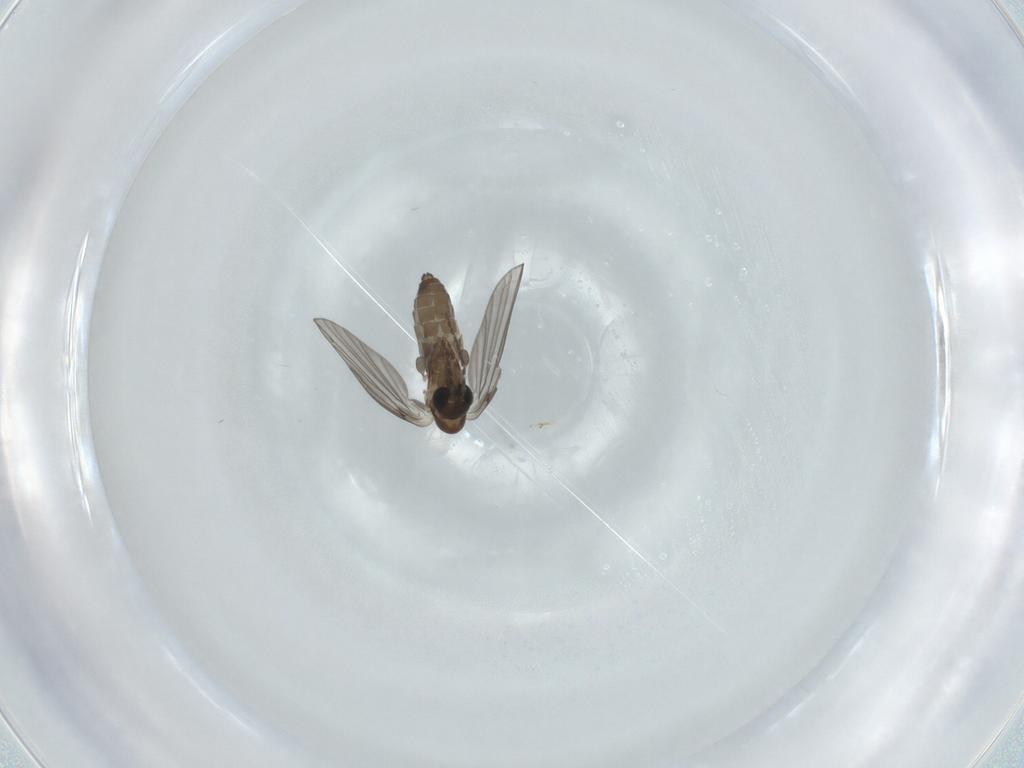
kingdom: Animalia
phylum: Arthropoda
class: Insecta
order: Diptera
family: Psychodidae
